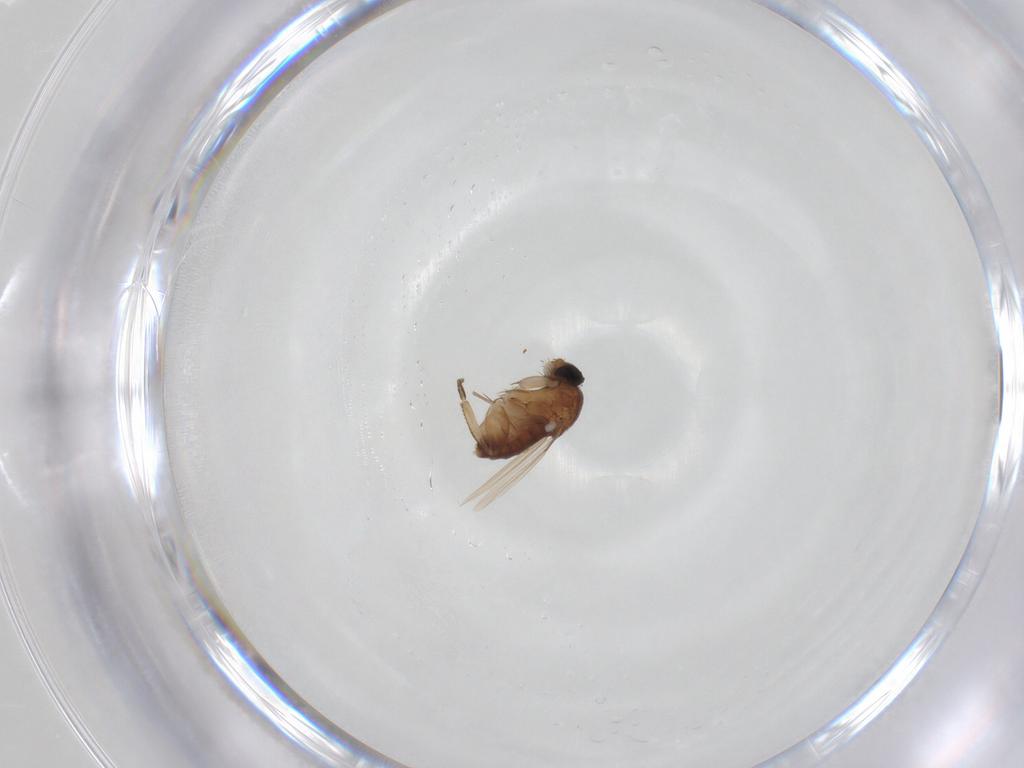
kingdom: Animalia
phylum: Arthropoda
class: Insecta
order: Diptera
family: Phoridae
